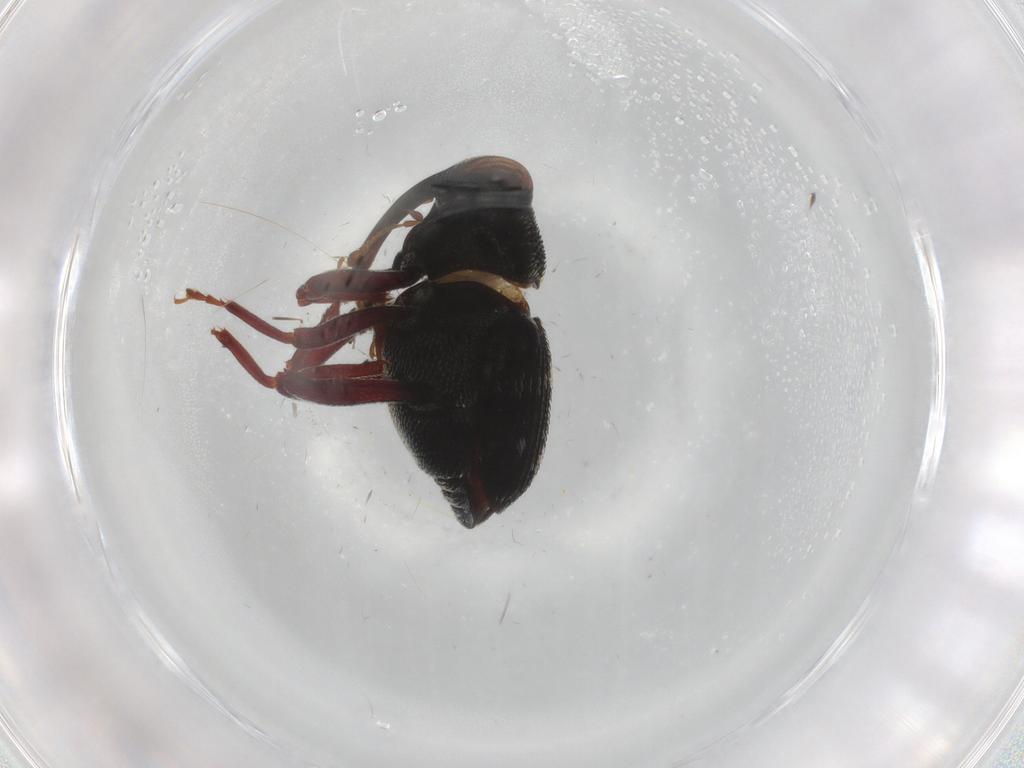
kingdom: Animalia
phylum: Arthropoda
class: Insecta
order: Coleoptera
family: Curculionidae
